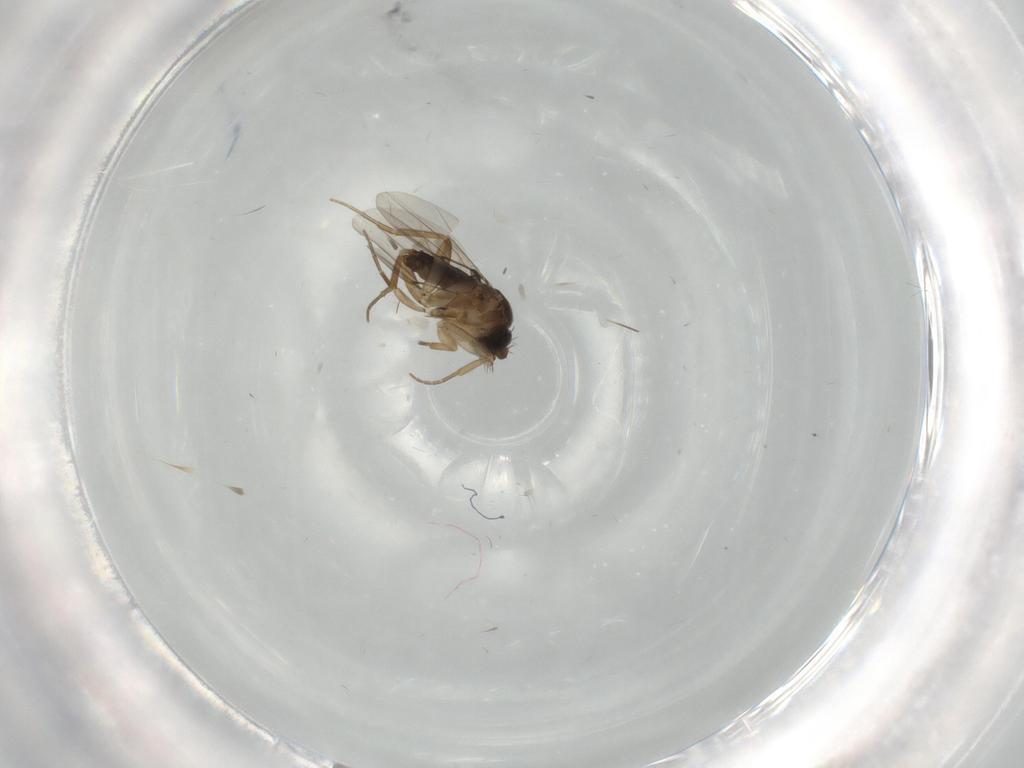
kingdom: Animalia
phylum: Arthropoda
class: Insecta
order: Diptera
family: Phoridae
